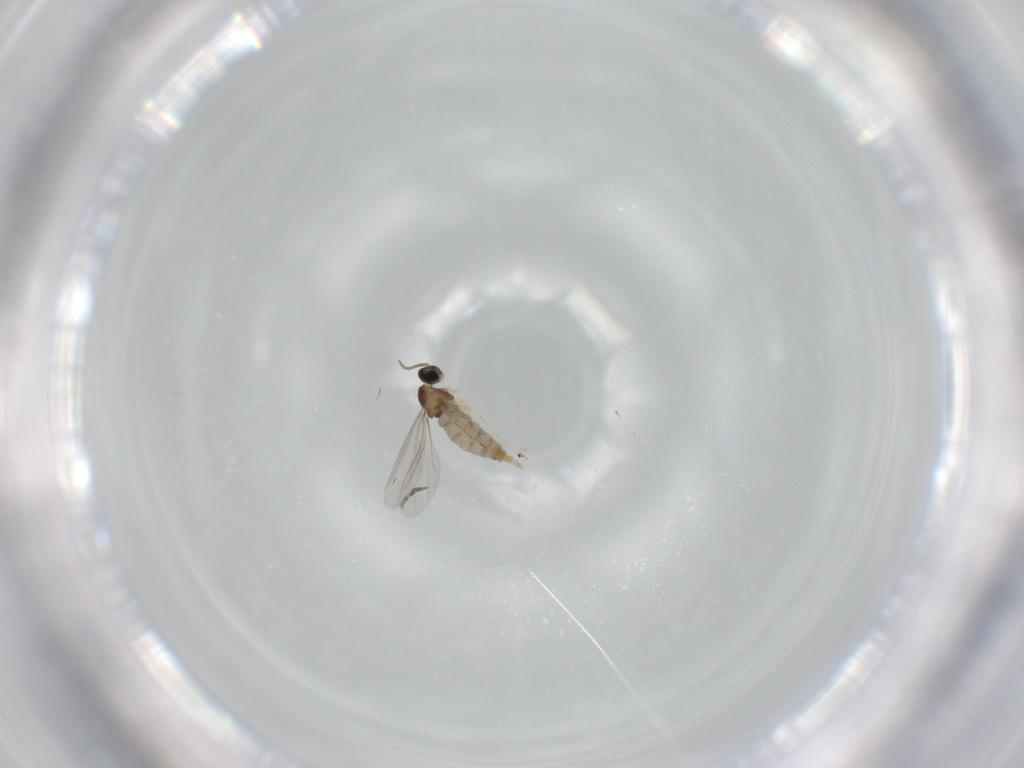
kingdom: Animalia
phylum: Arthropoda
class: Insecta
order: Diptera
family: Cecidomyiidae
